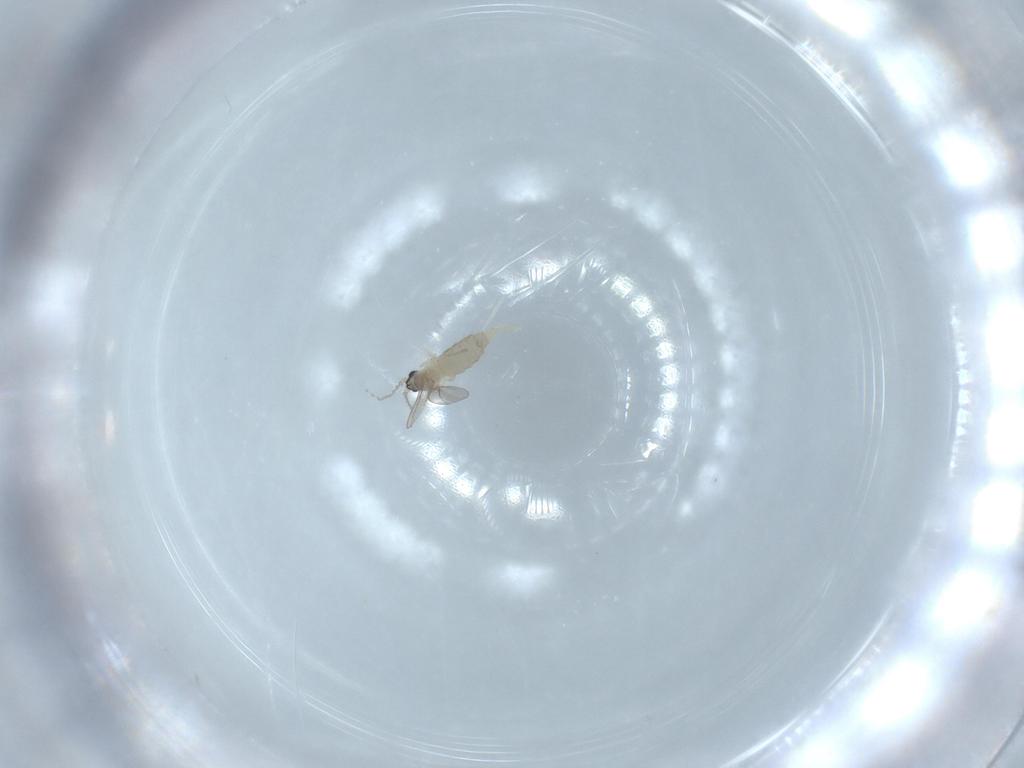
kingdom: Animalia
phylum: Arthropoda
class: Insecta
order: Diptera
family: Cecidomyiidae
